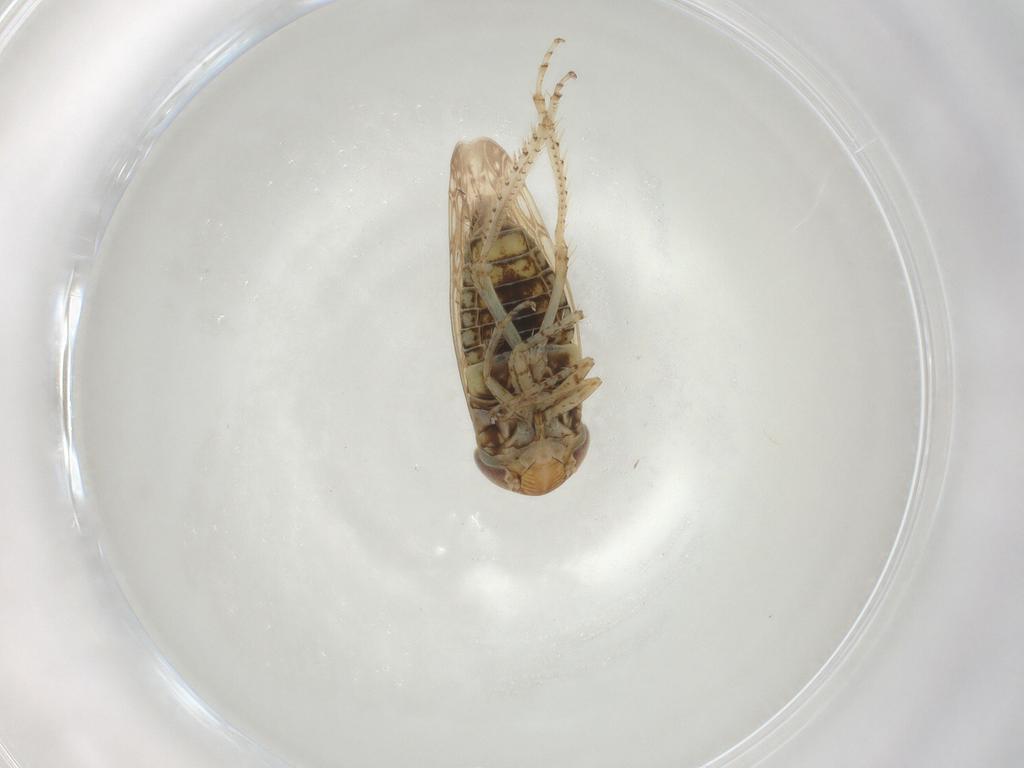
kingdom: Animalia
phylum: Arthropoda
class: Insecta
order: Hemiptera
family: Cicadellidae
